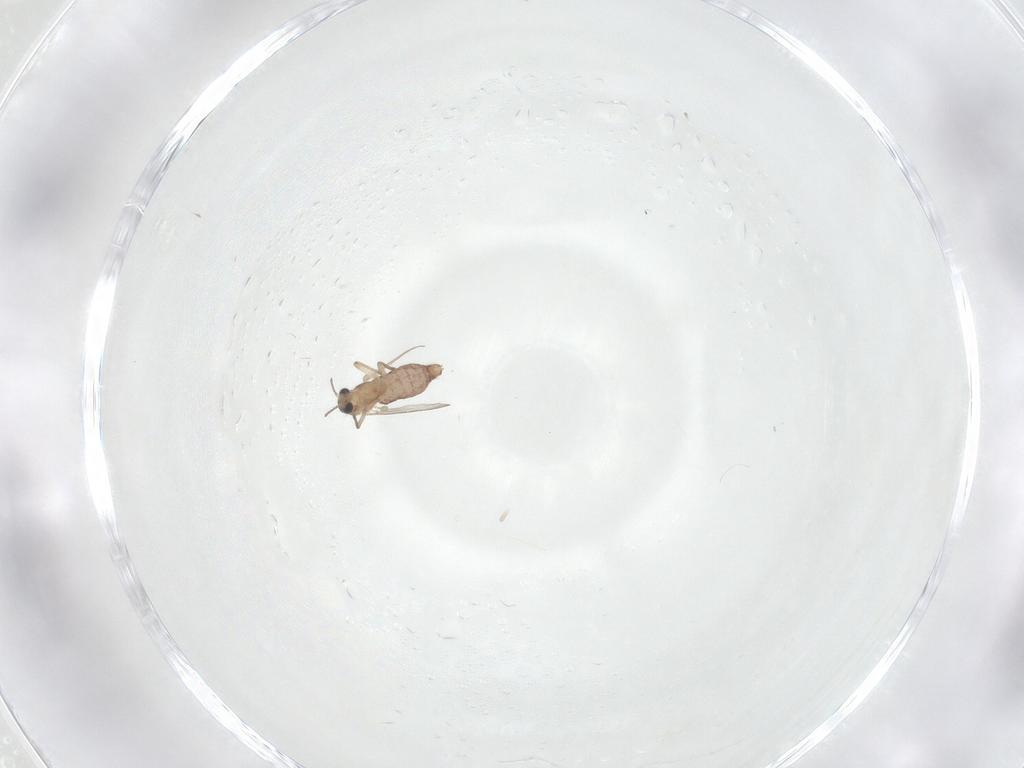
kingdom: Animalia
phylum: Arthropoda
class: Insecta
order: Diptera
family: Chironomidae
